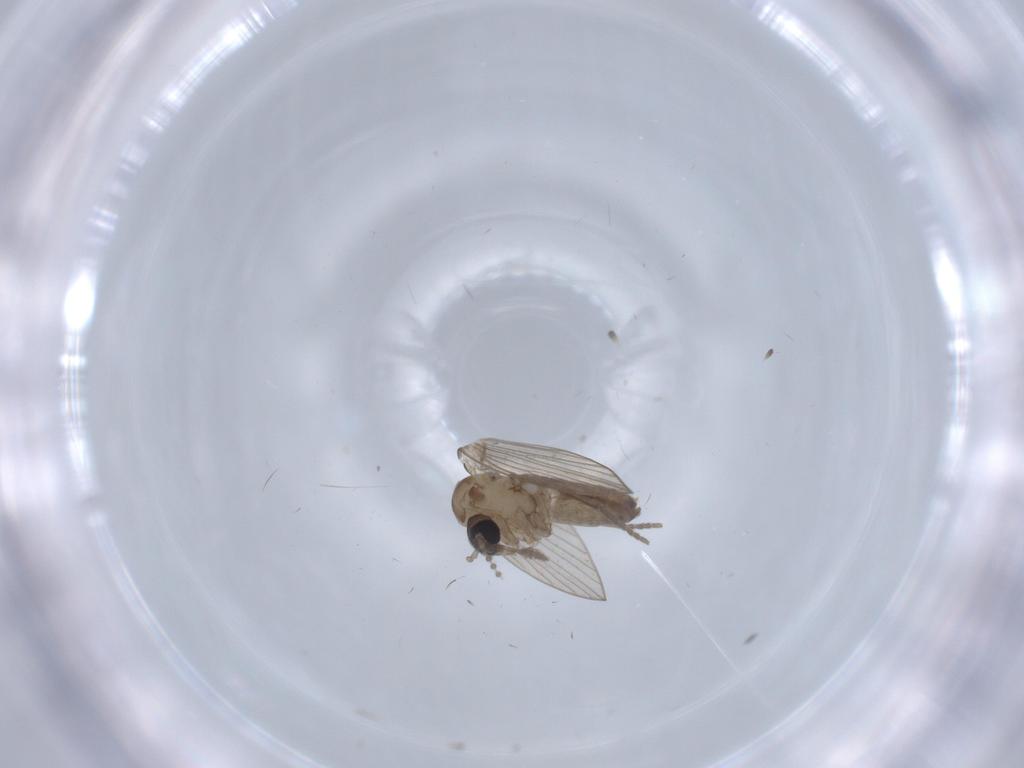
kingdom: Animalia
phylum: Arthropoda
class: Insecta
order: Diptera
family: Psychodidae
